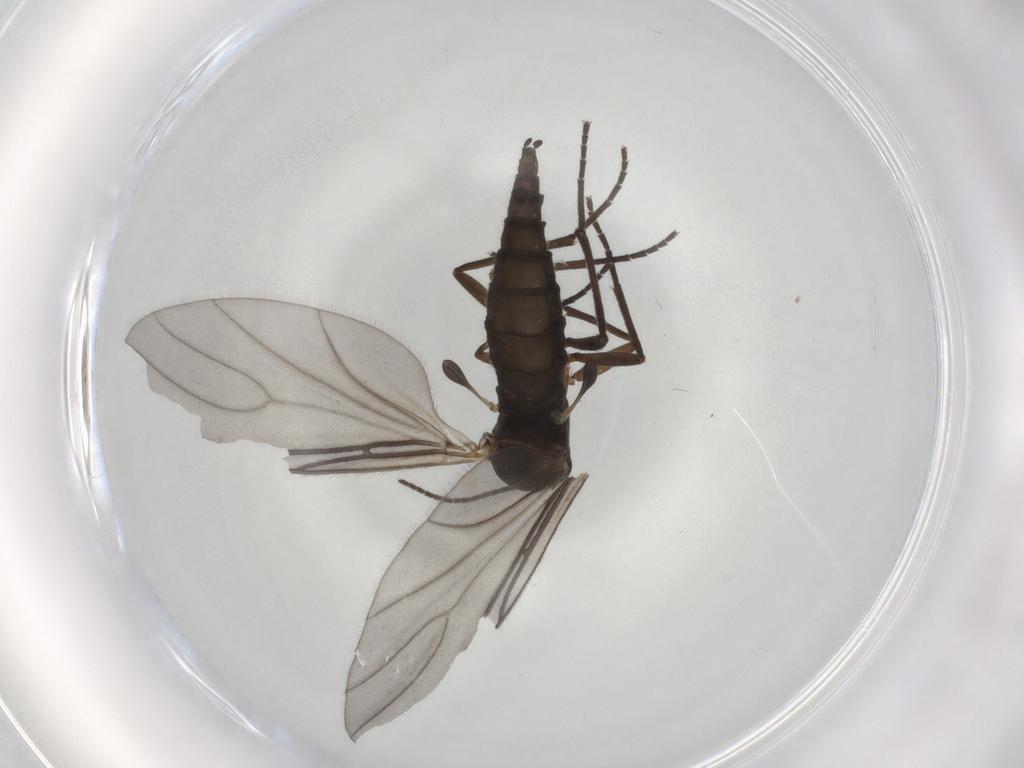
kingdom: Animalia
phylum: Arthropoda
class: Insecta
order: Diptera
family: Sciaridae
